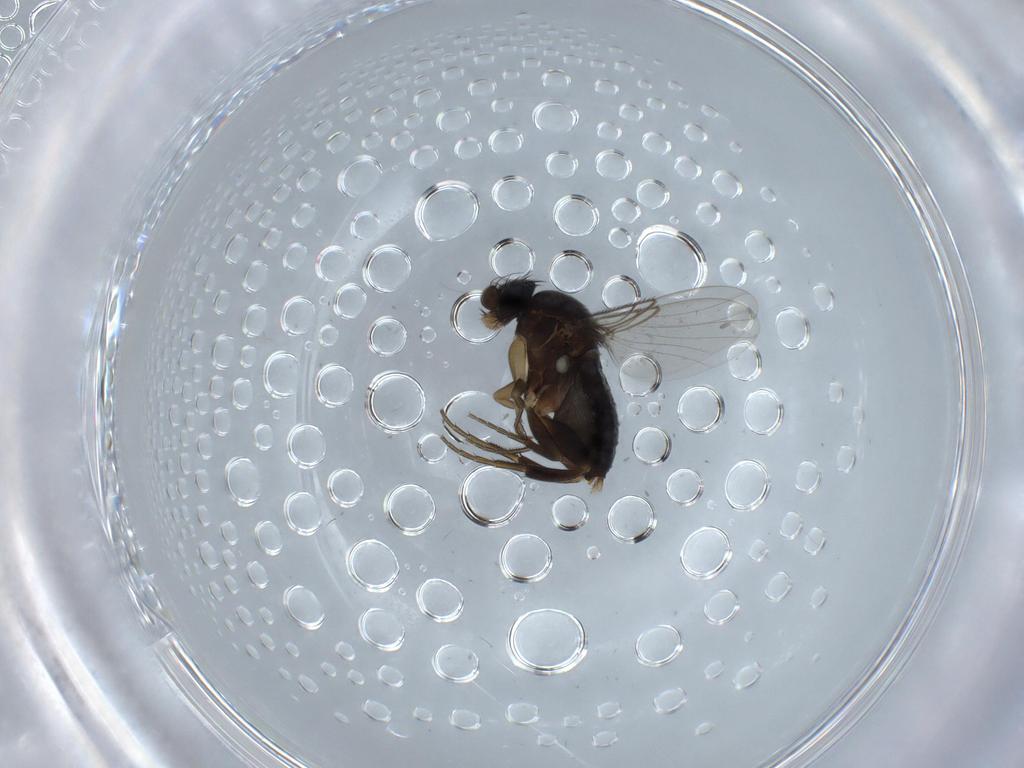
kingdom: Animalia
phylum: Arthropoda
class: Insecta
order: Diptera
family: Phoridae
